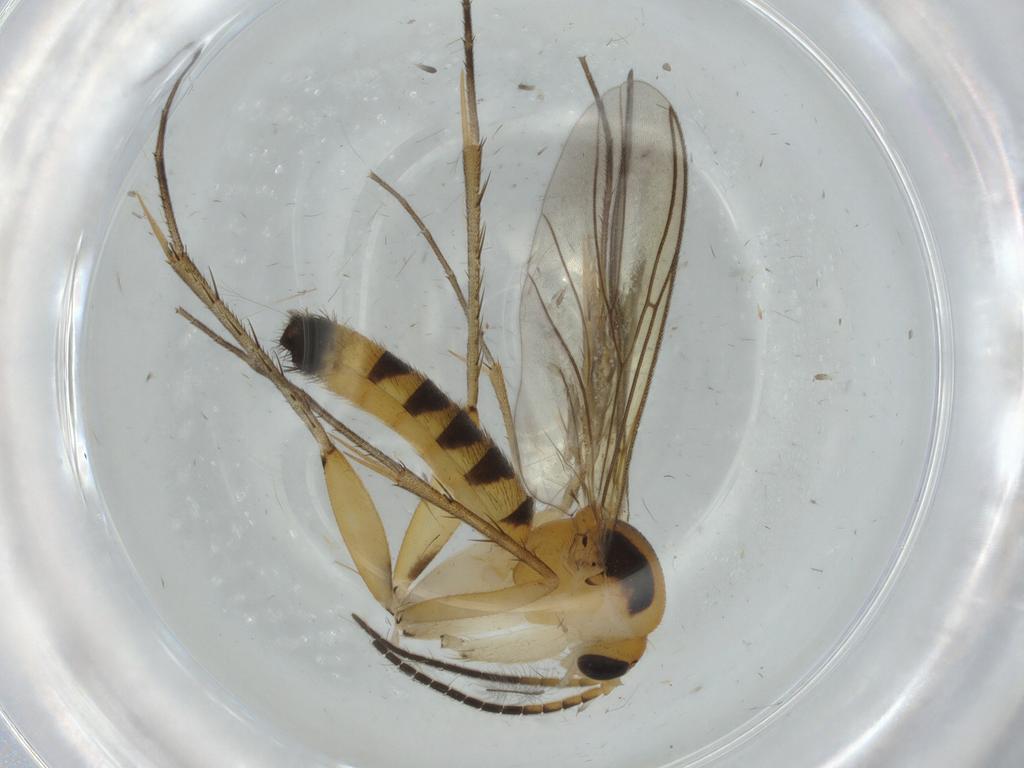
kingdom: Animalia
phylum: Arthropoda
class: Insecta
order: Diptera
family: Mycetophilidae
